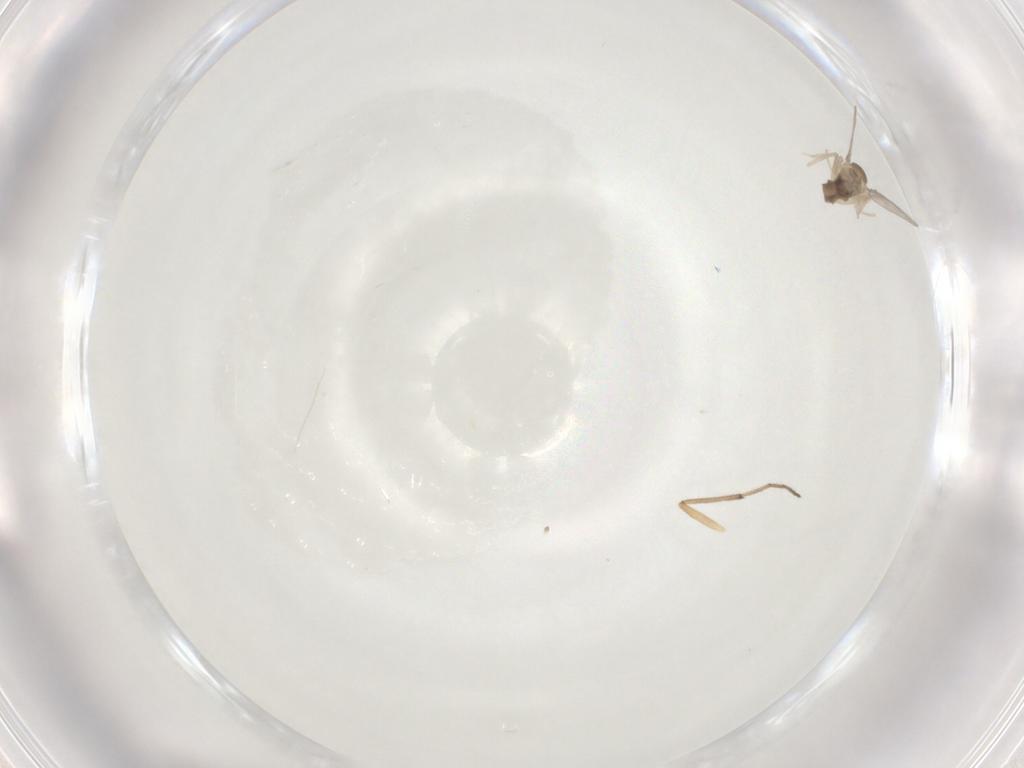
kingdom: Animalia
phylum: Arthropoda
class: Insecta
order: Diptera
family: Cecidomyiidae
